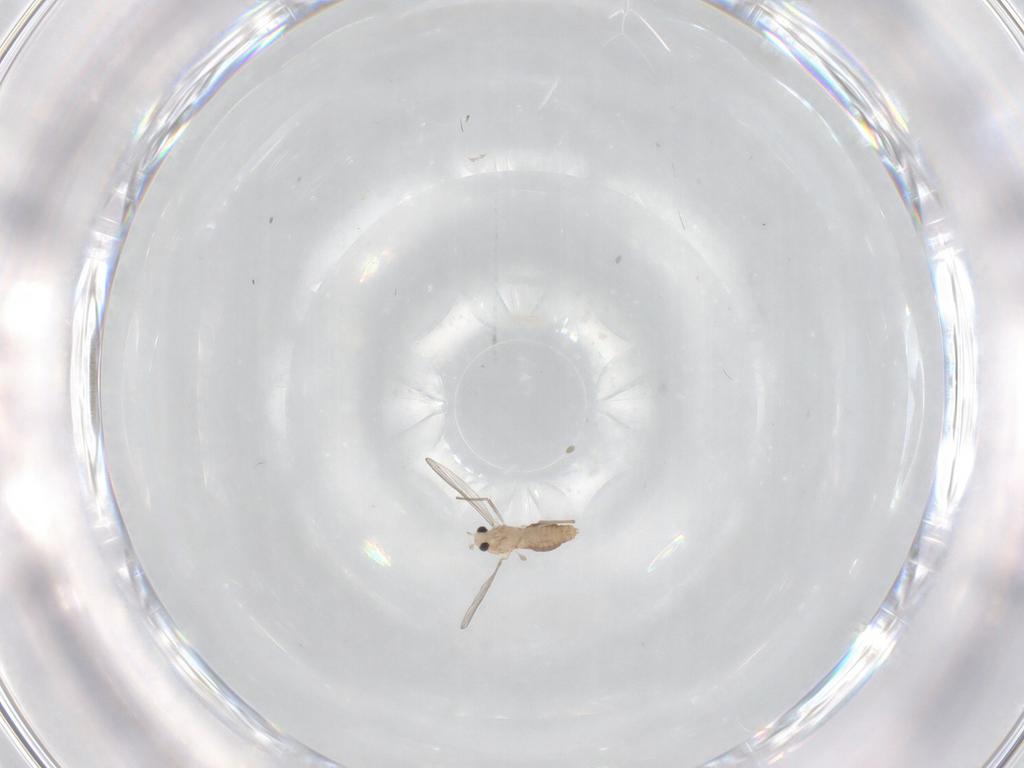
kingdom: Animalia
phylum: Arthropoda
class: Insecta
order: Diptera
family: Chironomidae
